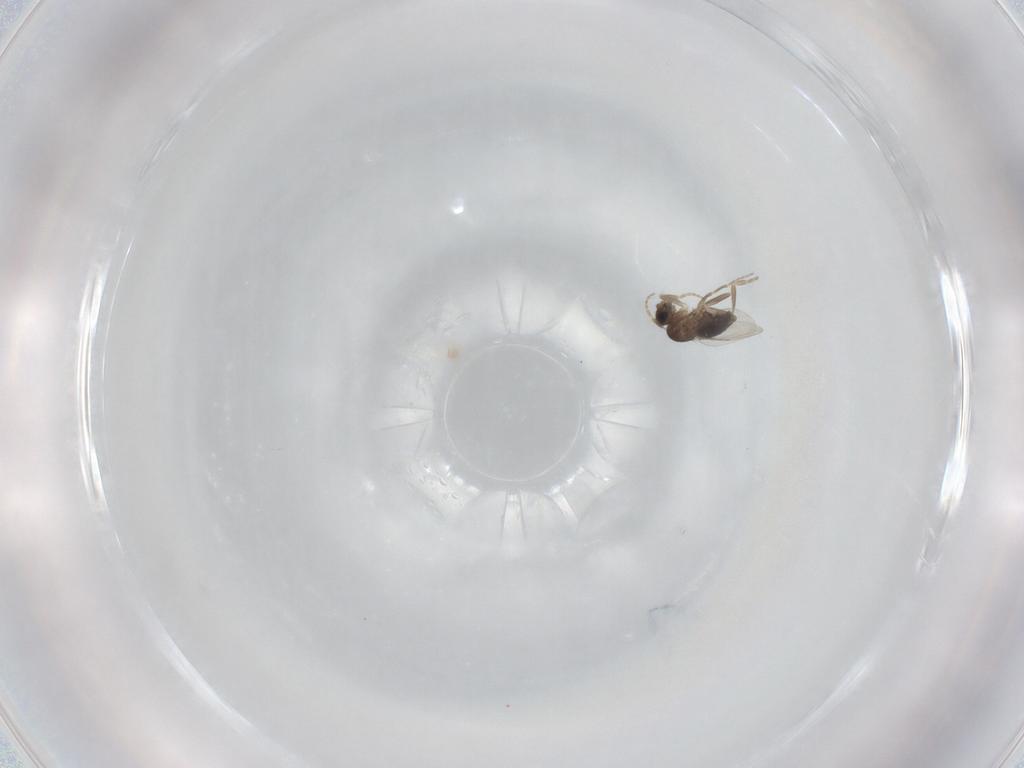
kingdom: Animalia
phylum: Arthropoda
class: Insecta
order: Diptera
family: Phoridae
